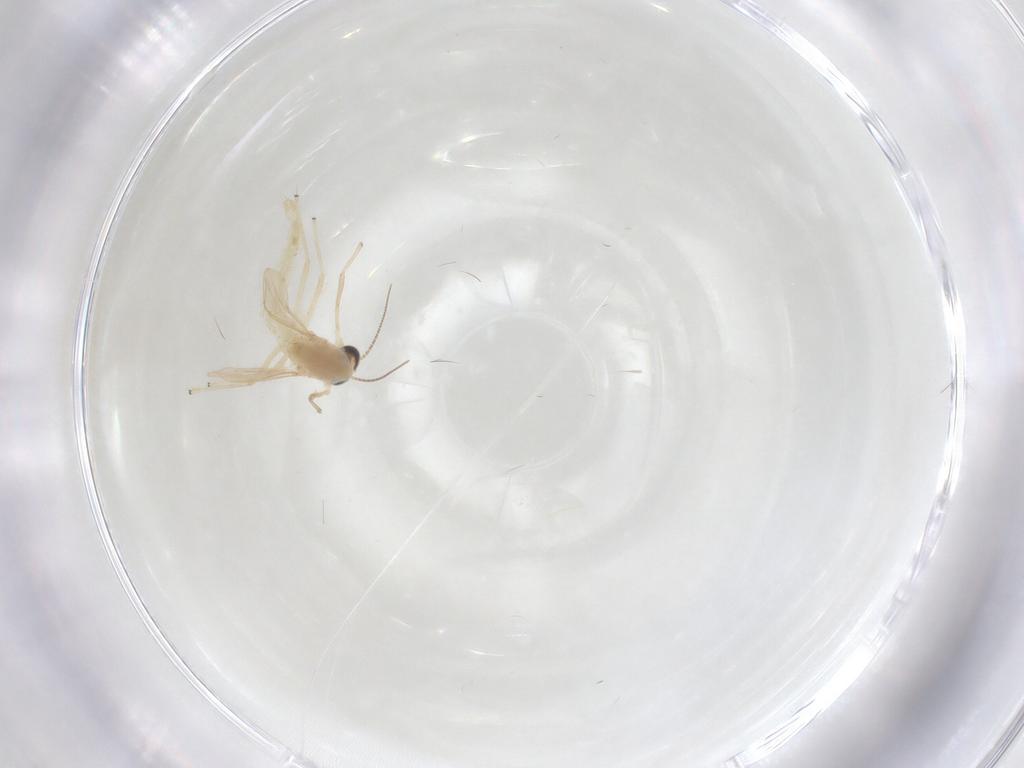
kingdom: Animalia
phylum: Arthropoda
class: Insecta
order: Diptera
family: Chironomidae
